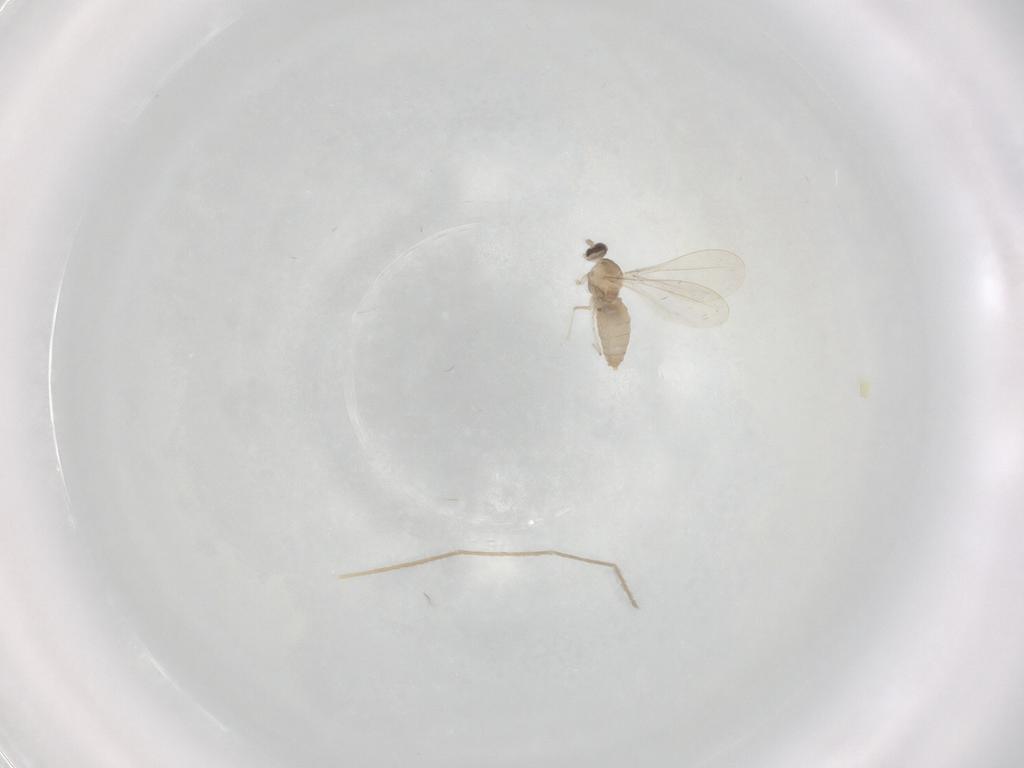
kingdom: Animalia
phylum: Arthropoda
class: Insecta
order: Diptera
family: Cecidomyiidae
